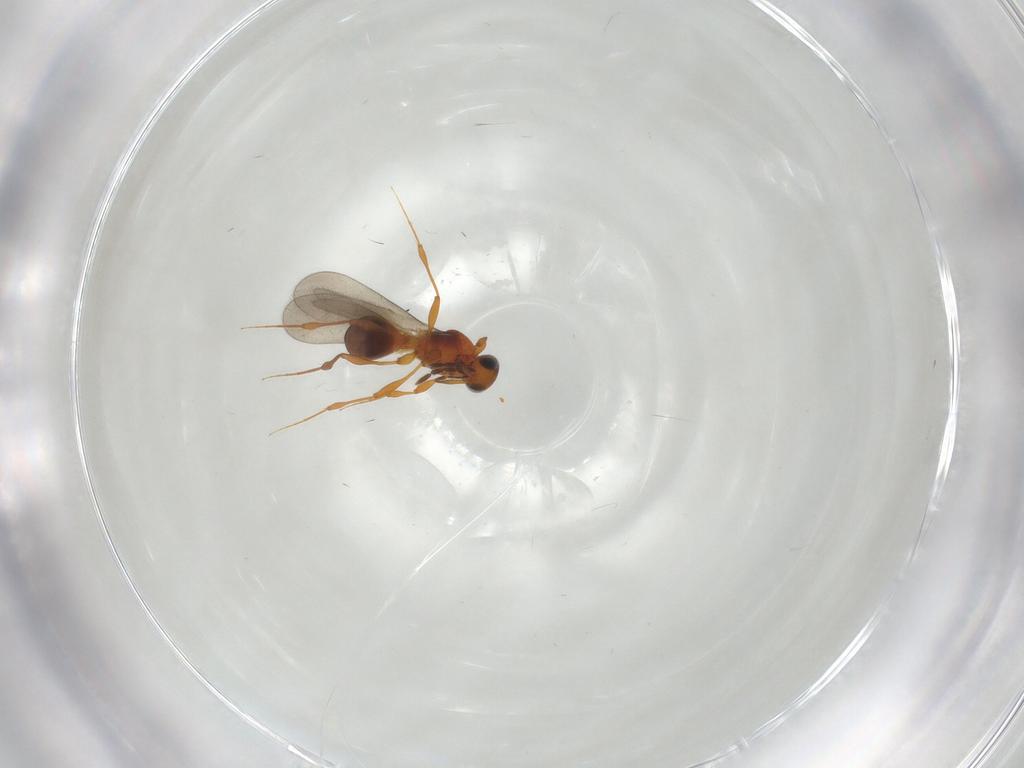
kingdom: Animalia
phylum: Arthropoda
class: Insecta
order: Hymenoptera
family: Platygastridae
